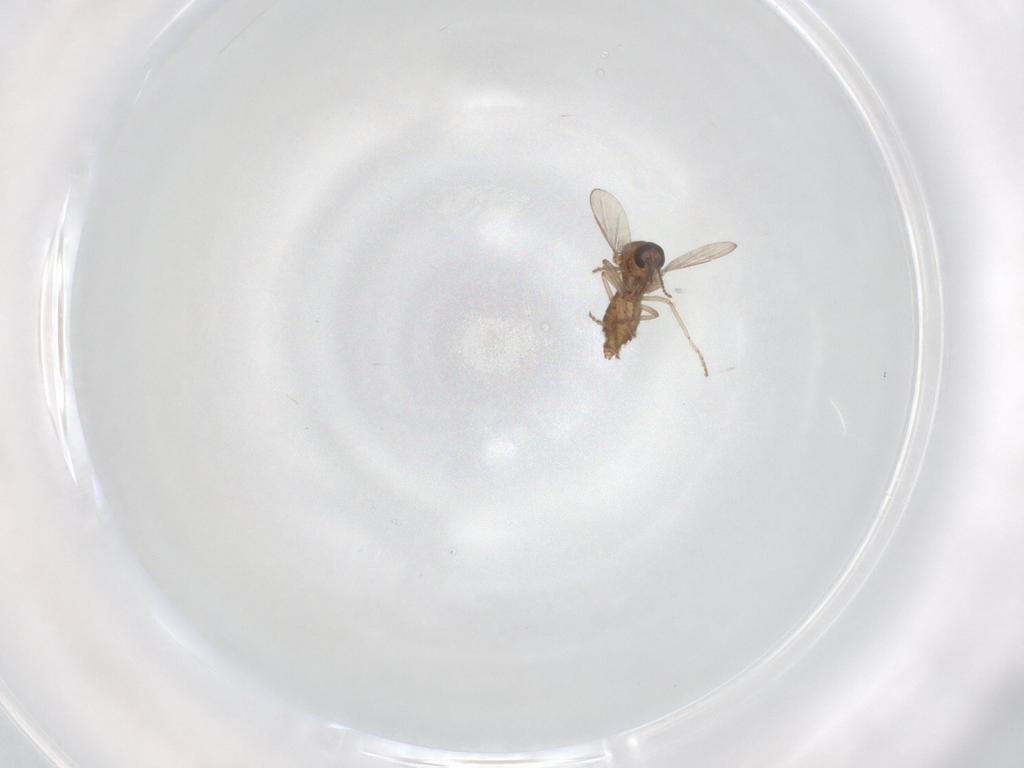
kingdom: Animalia
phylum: Arthropoda
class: Insecta
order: Diptera
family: Ceratopogonidae
